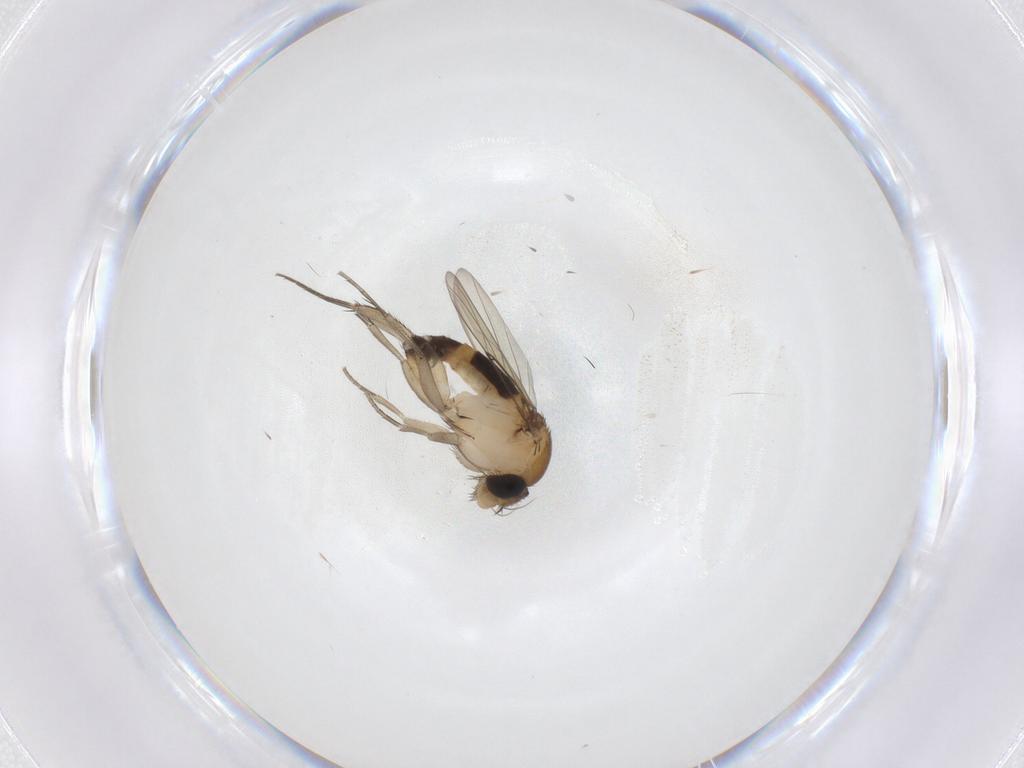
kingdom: Animalia
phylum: Arthropoda
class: Insecta
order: Diptera
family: Phoridae
